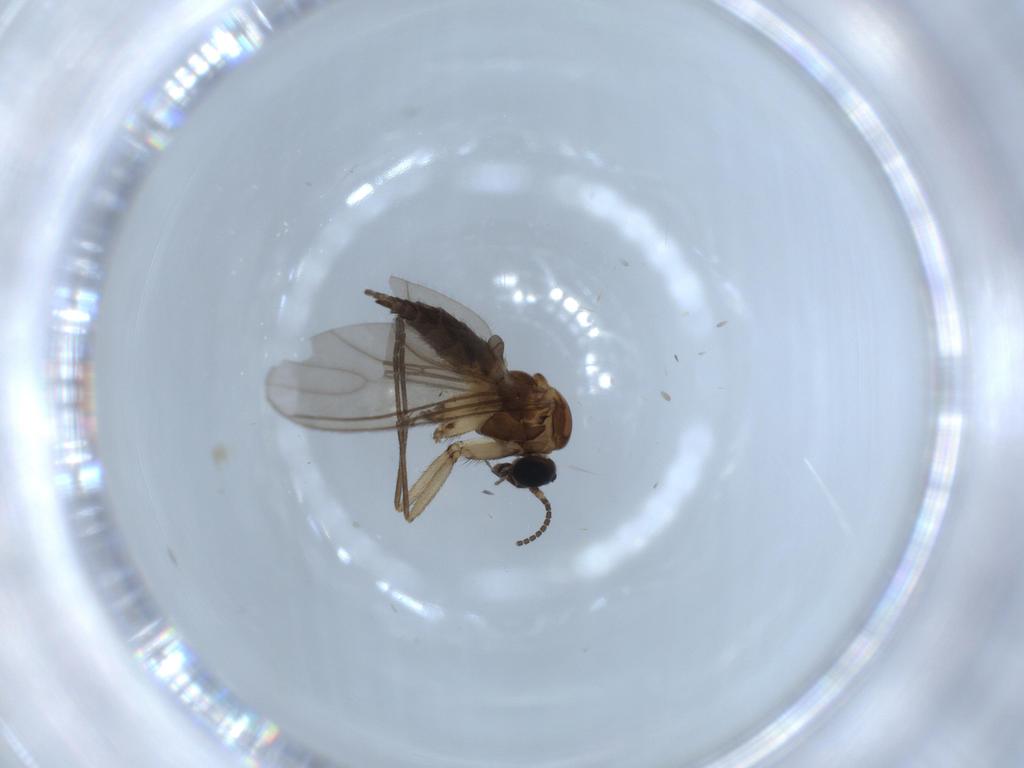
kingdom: Animalia
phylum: Arthropoda
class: Insecta
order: Diptera
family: Sciaridae
